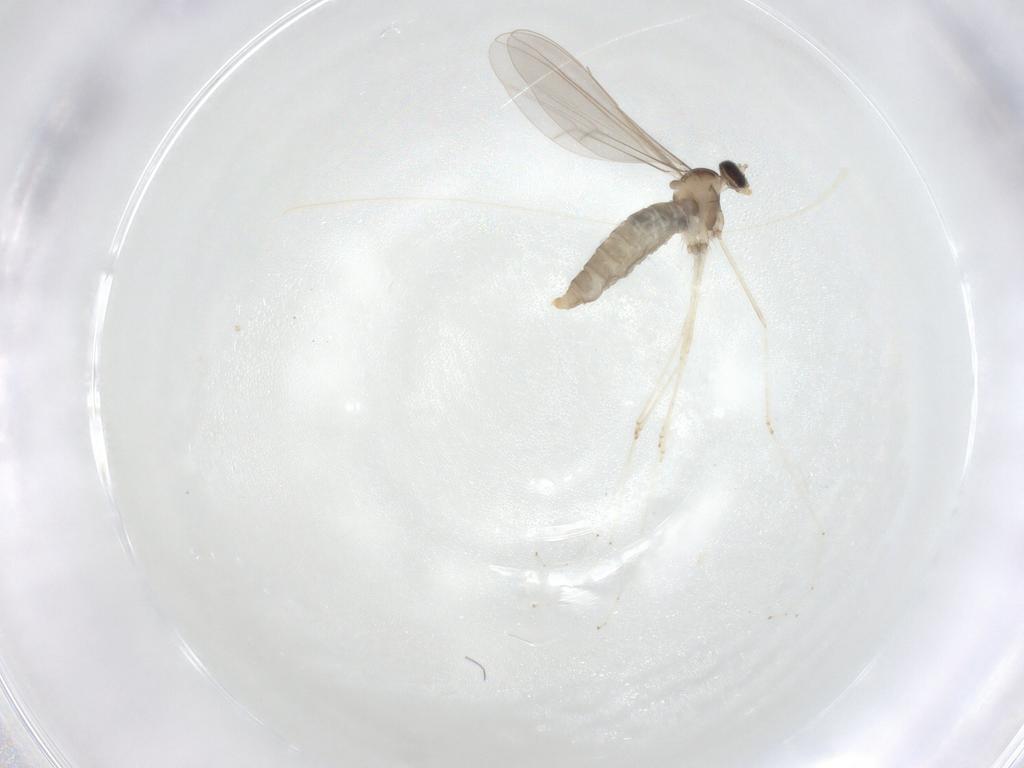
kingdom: Animalia
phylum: Arthropoda
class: Insecta
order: Diptera
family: Cecidomyiidae
